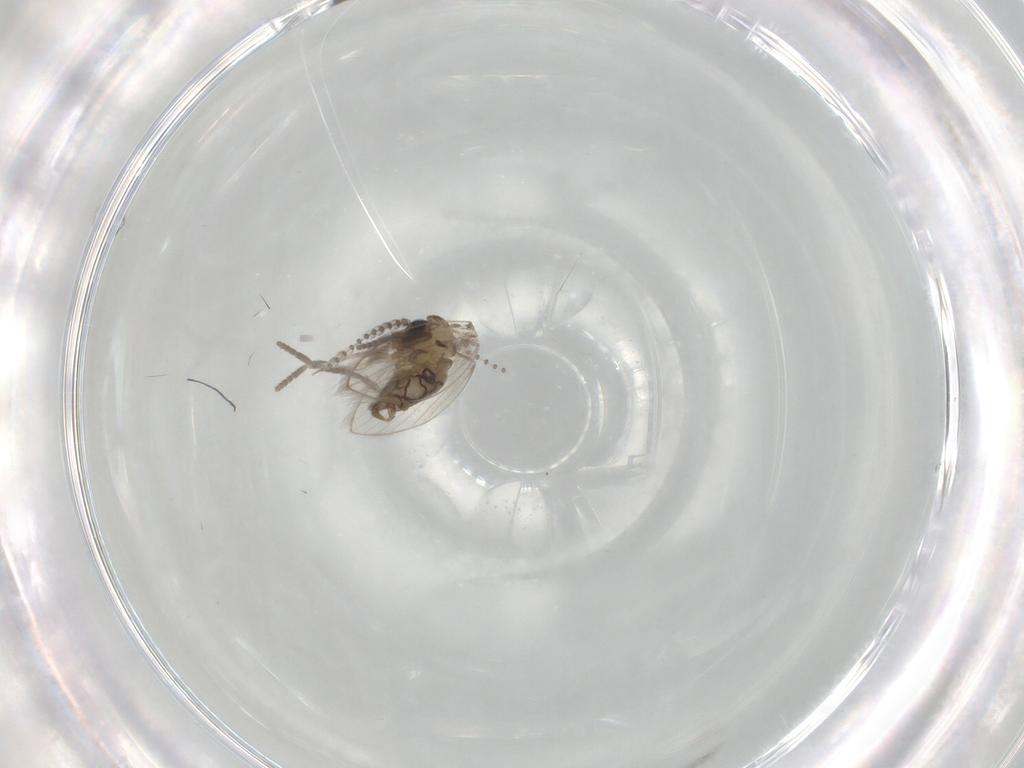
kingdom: Animalia
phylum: Arthropoda
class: Insecta
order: Diptera
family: Psychodidae
